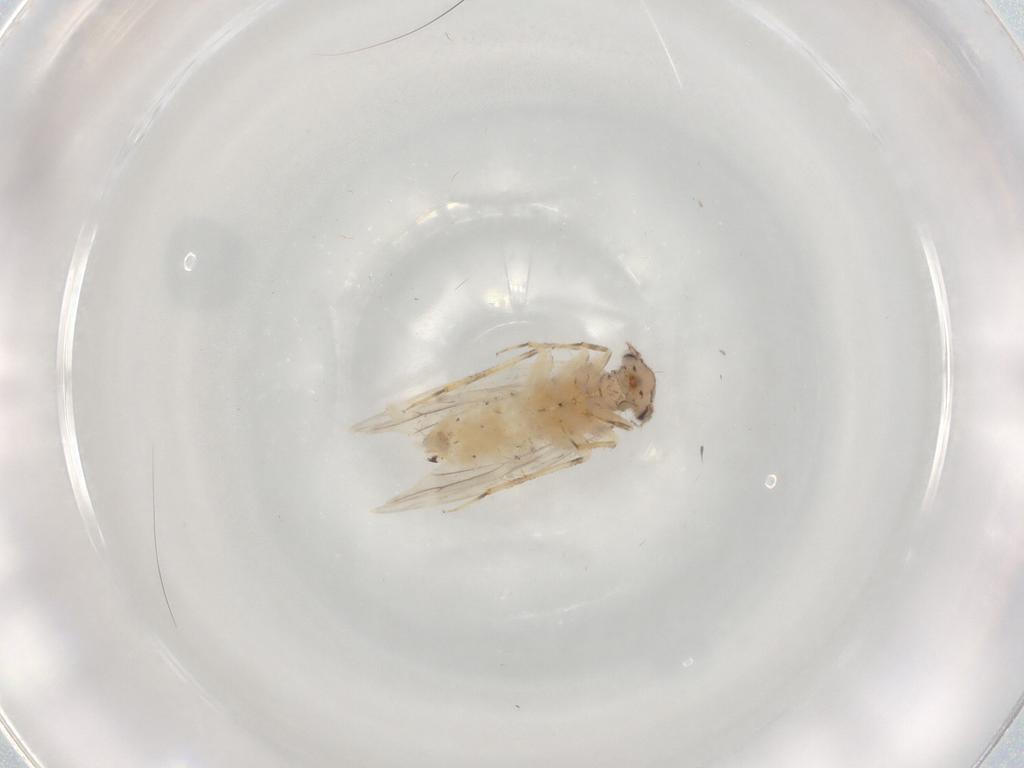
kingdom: Animalia
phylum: Arthropoda
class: Insecta
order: Psocodea
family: Lepidopsocidae
